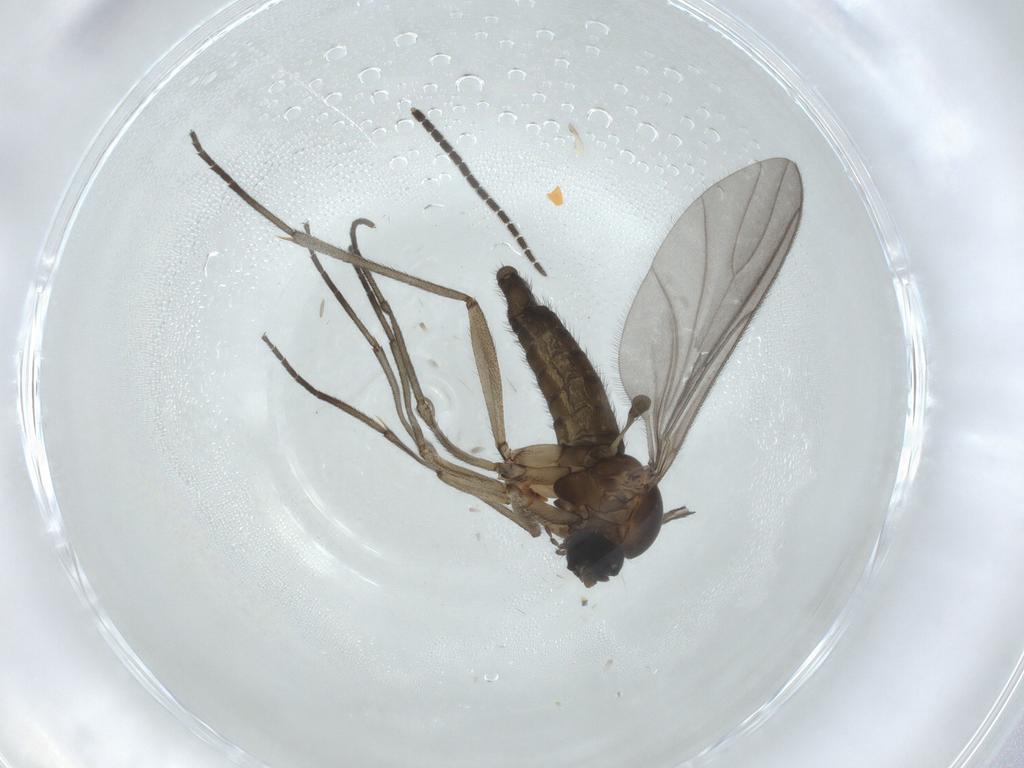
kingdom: Animalia
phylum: Arthropoda
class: Insecta
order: Diptera
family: Sciaridae
